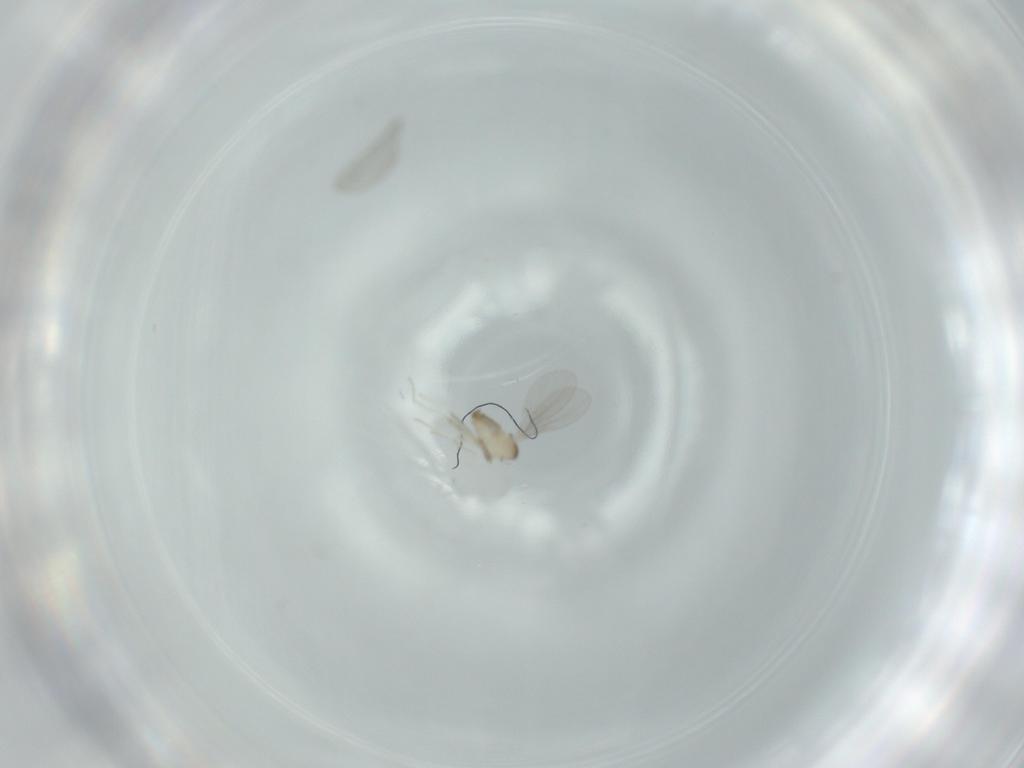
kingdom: Animalia
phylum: Arthropoda
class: Insecta
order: Diptera
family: Cecidomyiidae
